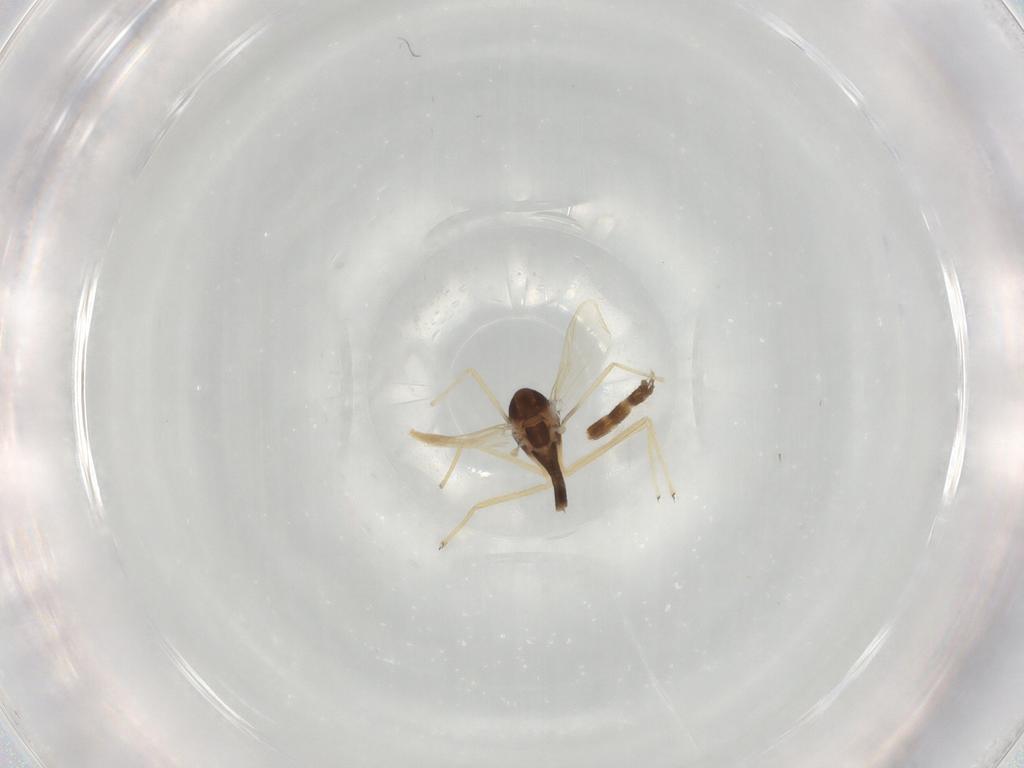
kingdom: Animalia
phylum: Arthropoda
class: Insecta
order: Diptera
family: Chironomidae
